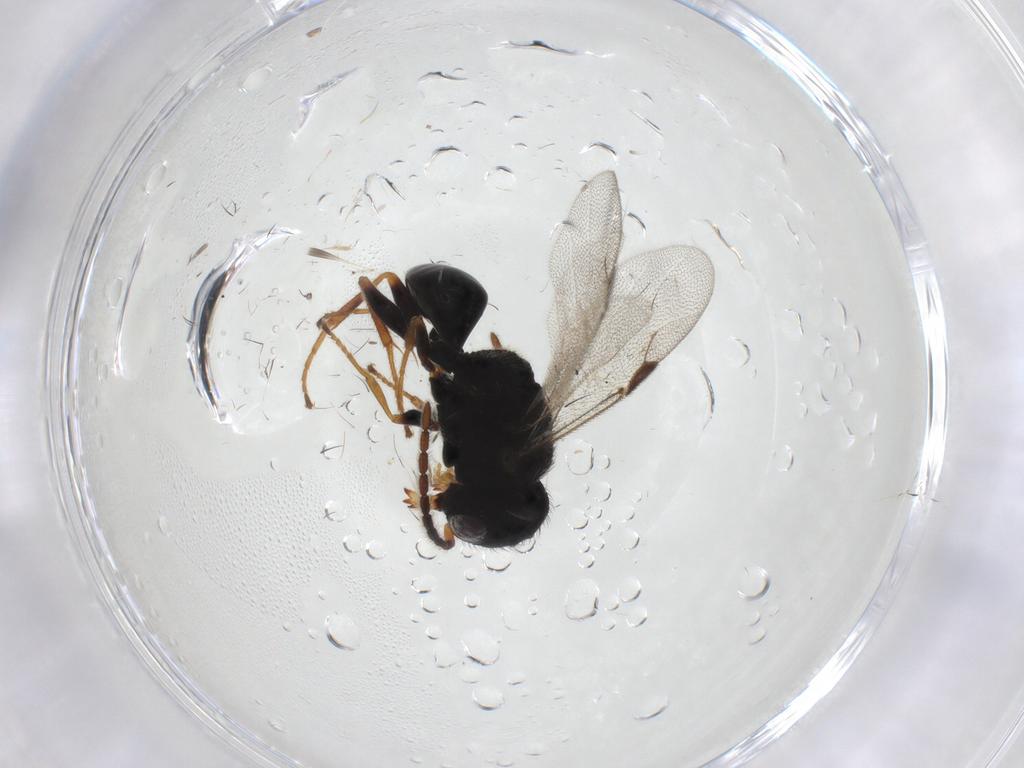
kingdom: Animalia
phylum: Arthropoda
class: Insecta
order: Hymenoptera
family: Dryinidae
